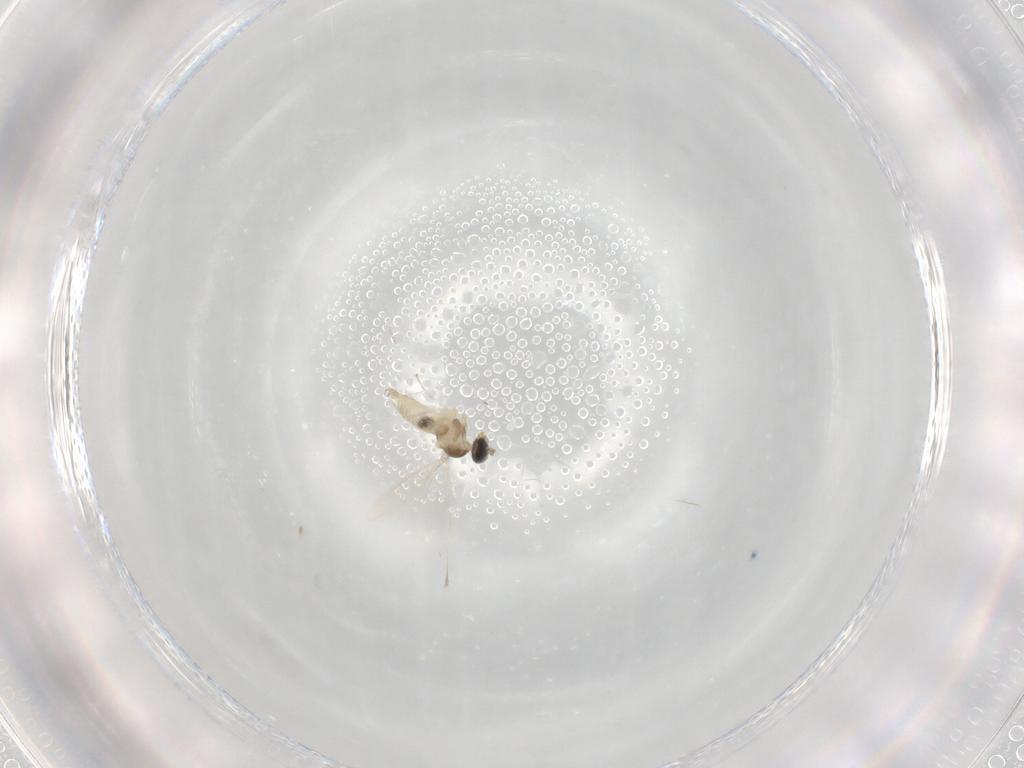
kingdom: Animalia
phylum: Arthropoda
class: Insecta
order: Diptera
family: Cecidomyiidae
